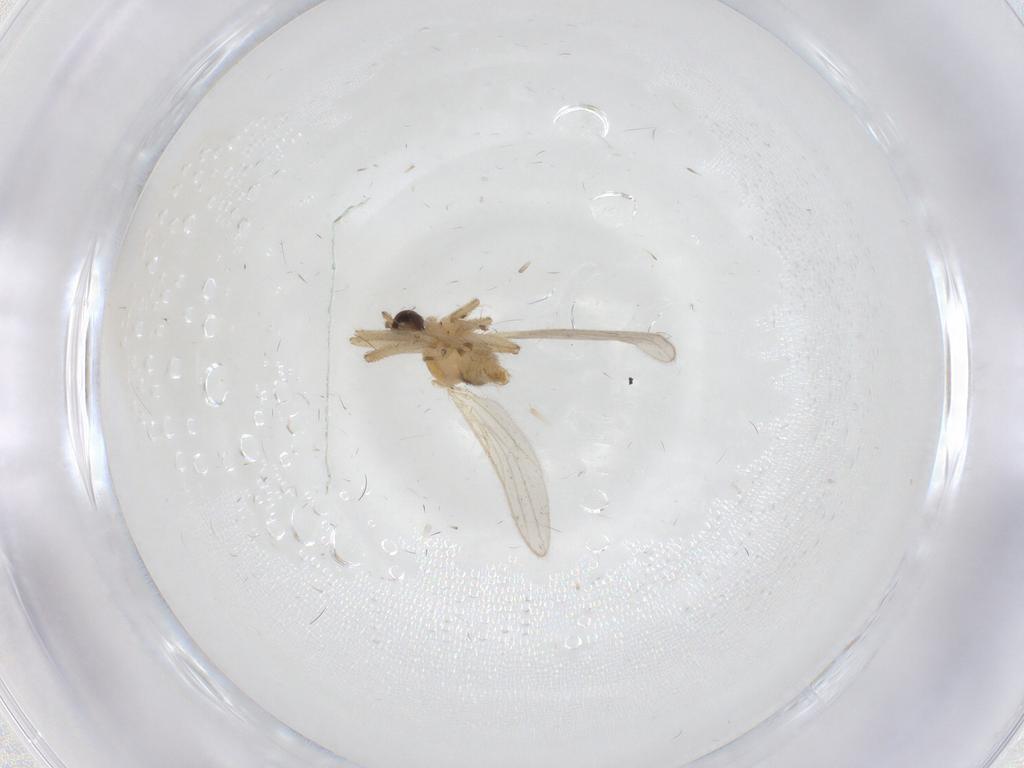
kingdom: Animalia
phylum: Arthropoda
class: Insecta
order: Diptera
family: Hybotidae
